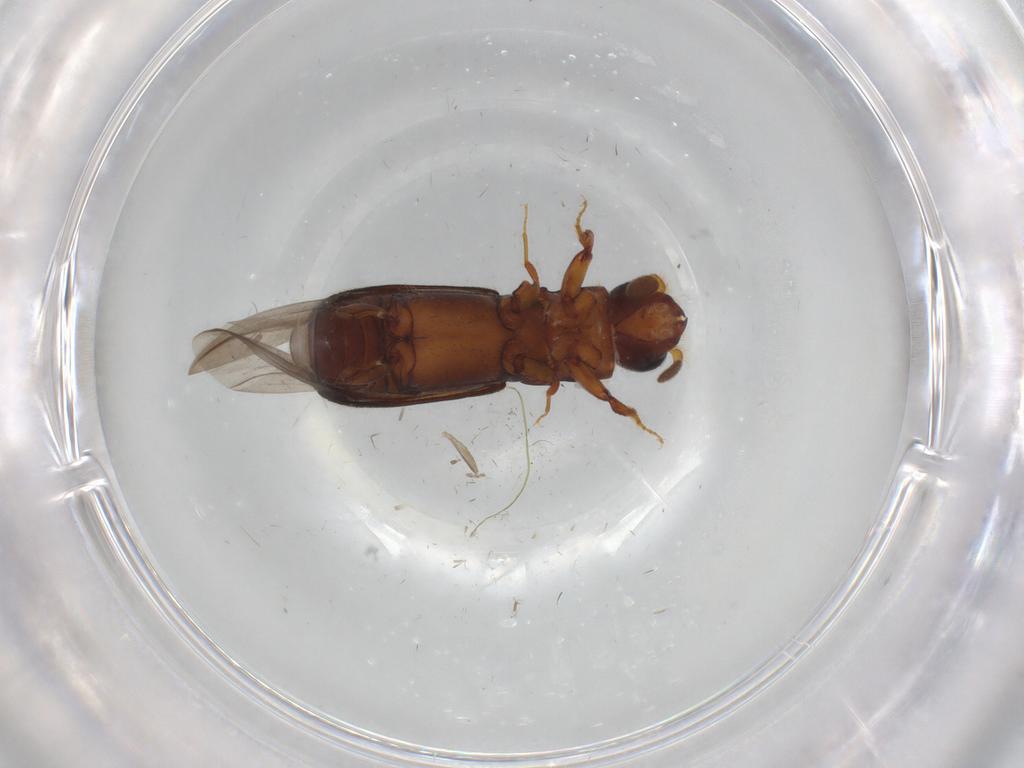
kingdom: Animalia
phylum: Arthropoda
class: Insecta
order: Coleoptera
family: Curculionidae
